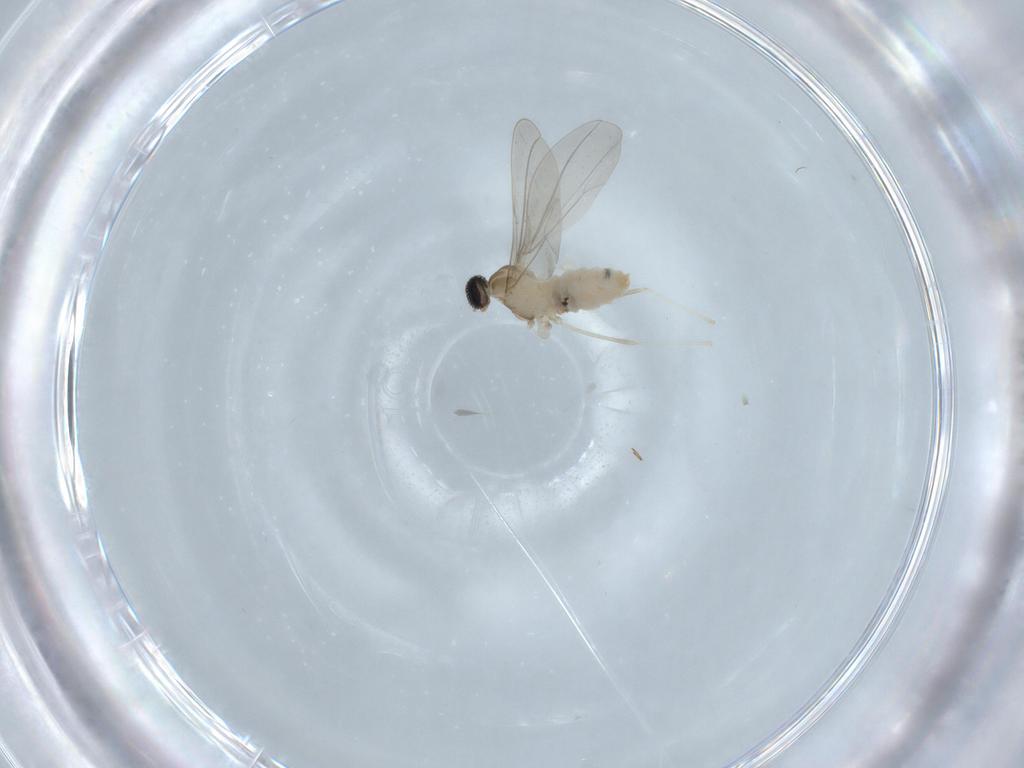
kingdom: Animalia
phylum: Arthropoda
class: Insecta
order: Diptera
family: Cecidomyiidae
